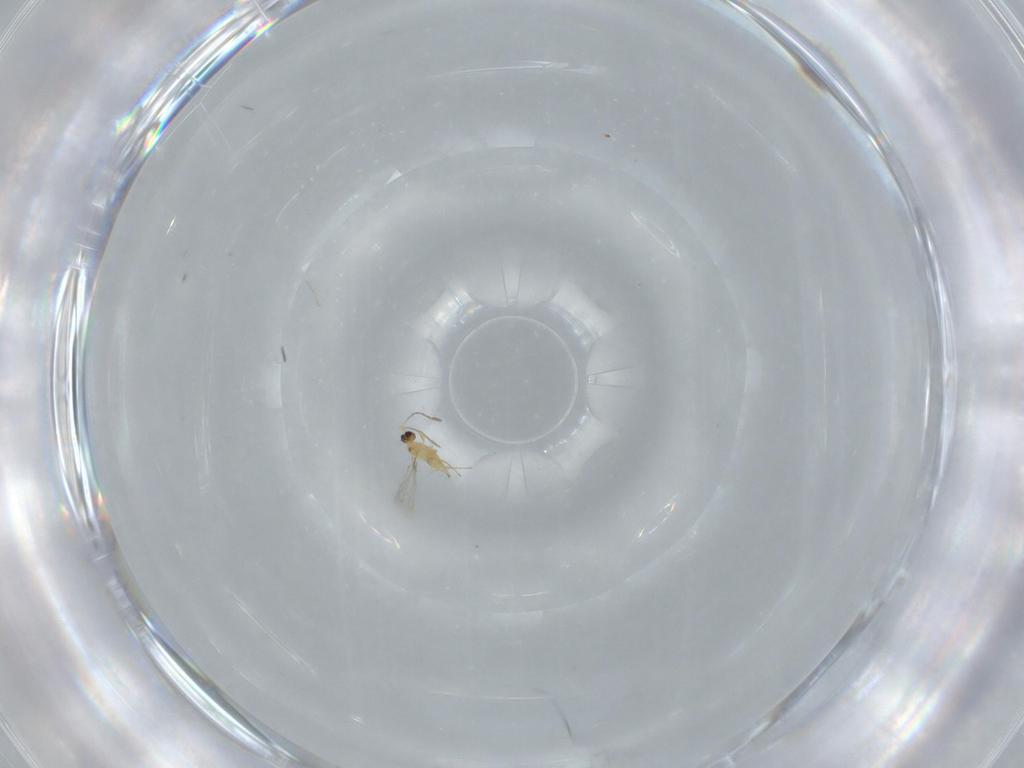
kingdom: Animalia
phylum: Arthropoda
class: Insecta
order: Hymenoptera
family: Mymaridae
